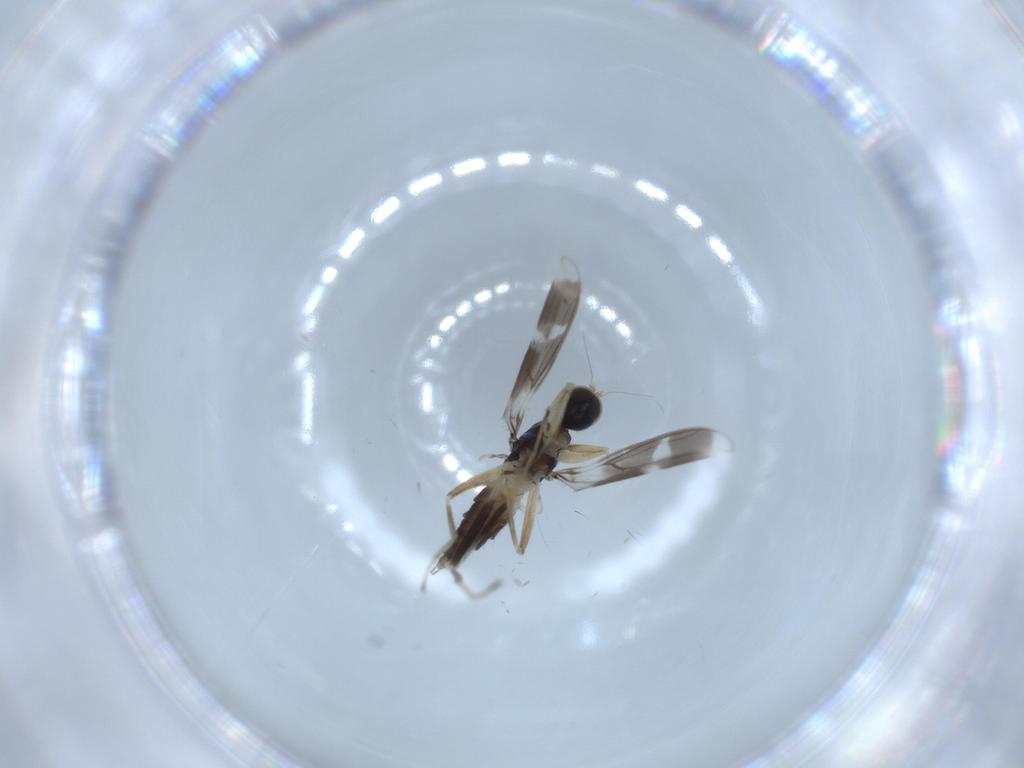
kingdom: Animalia
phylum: Arthropoda
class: Insecta
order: Diptera
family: Hybotidae
